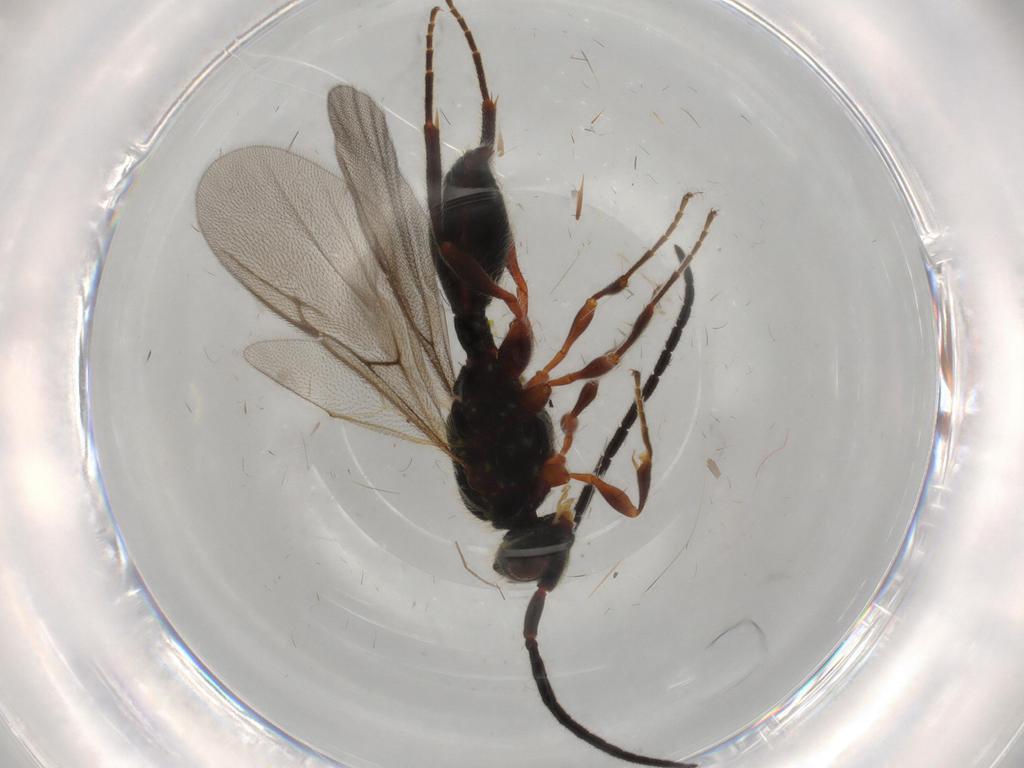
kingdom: Animalia
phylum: Arthropoda
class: Insecta
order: Hymenoptera
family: Diapriidae
